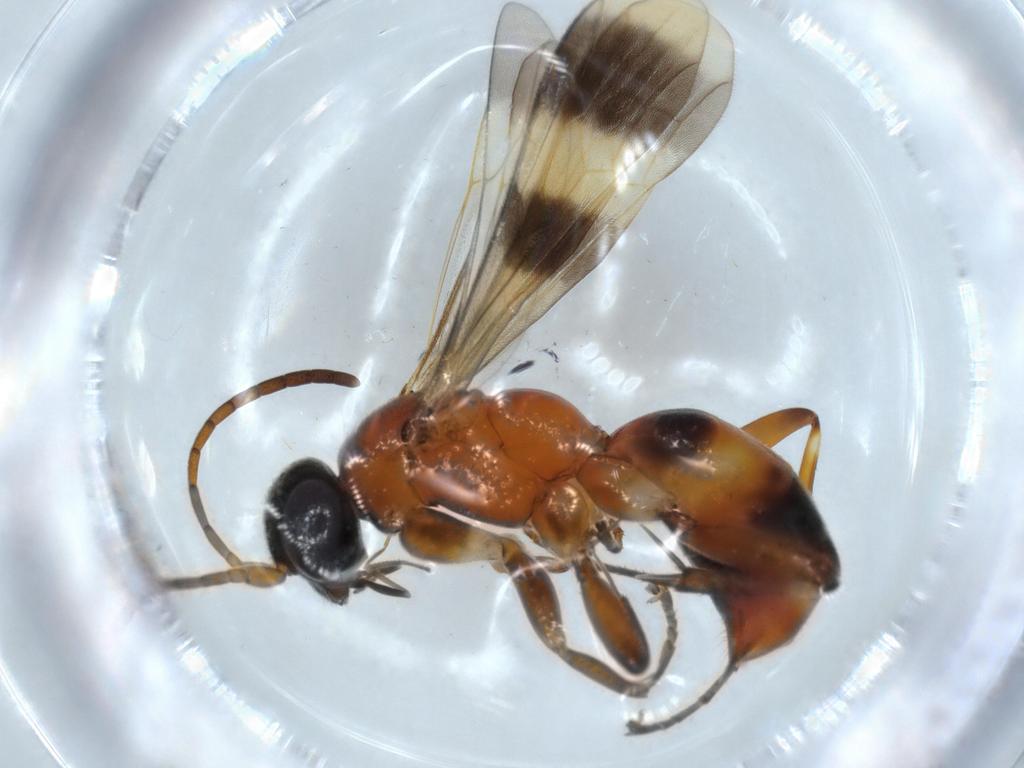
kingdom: Animalia
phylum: Arthropoda
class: Insecta
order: Hymenoptera
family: Pompilidae
